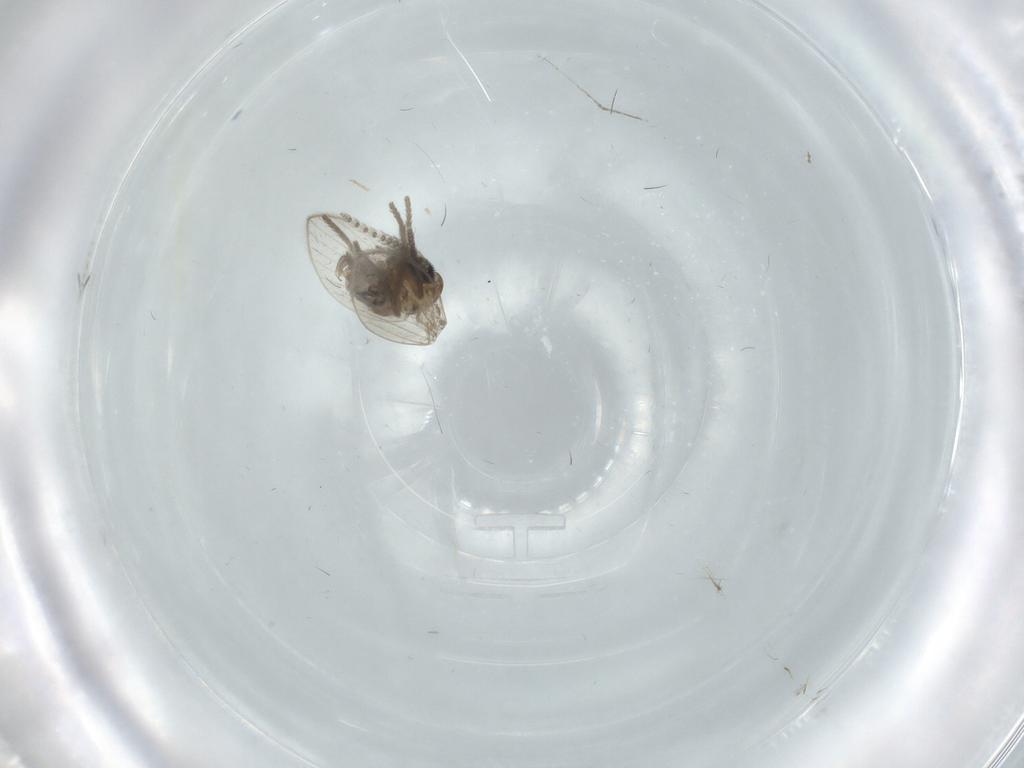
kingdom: Animalia
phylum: Arthropoda
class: Insecta
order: Diptera
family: Psychodidae
